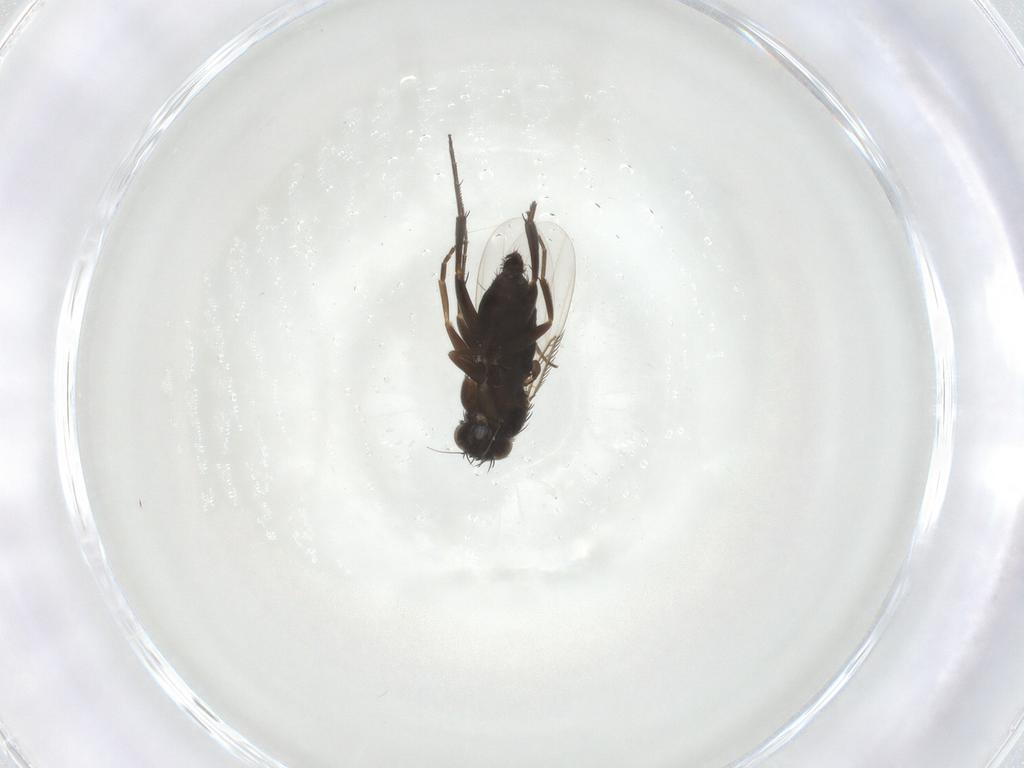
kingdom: Animalia
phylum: Arthropoda
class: Insecta
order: Diptera
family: Phoridae
